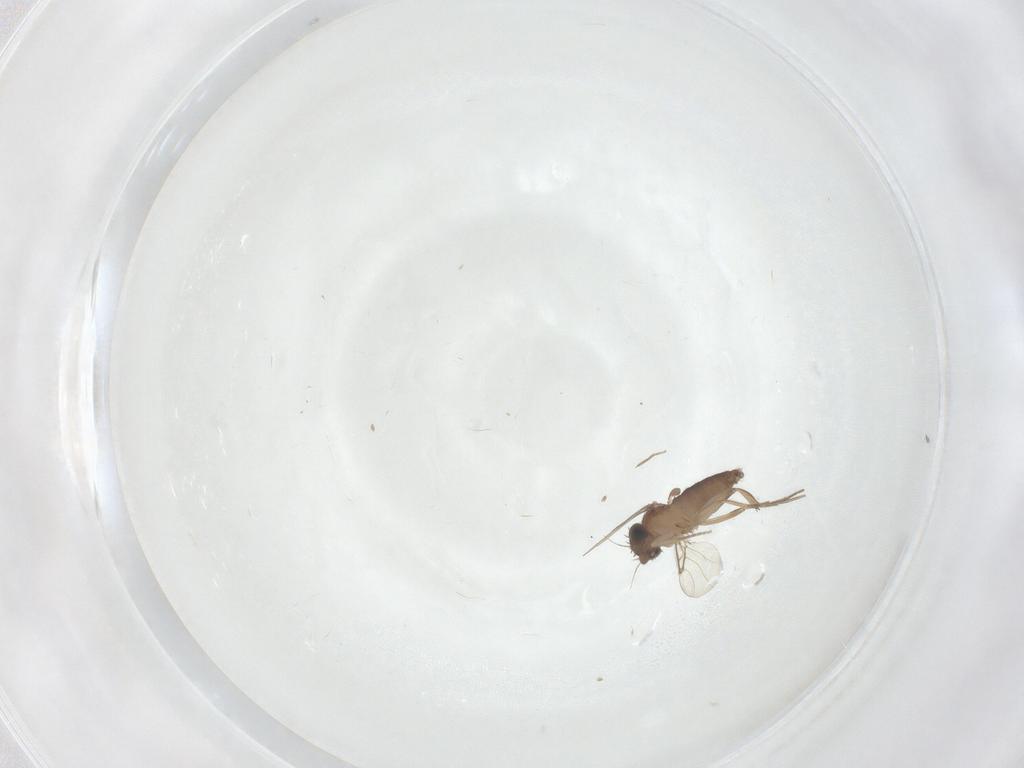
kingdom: Animalia
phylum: Arthropoda
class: Insecta
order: Diptera
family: Phoridae
